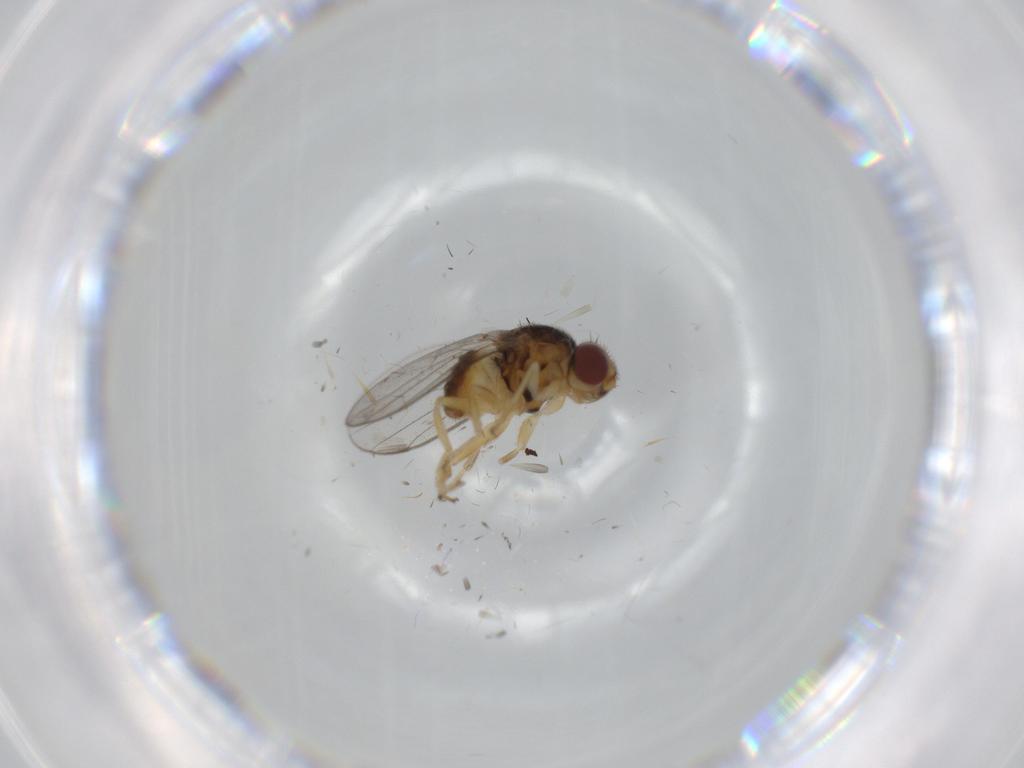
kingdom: Animalia
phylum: Arthropoda
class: Insecta
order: Diptera
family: Chloropidae
